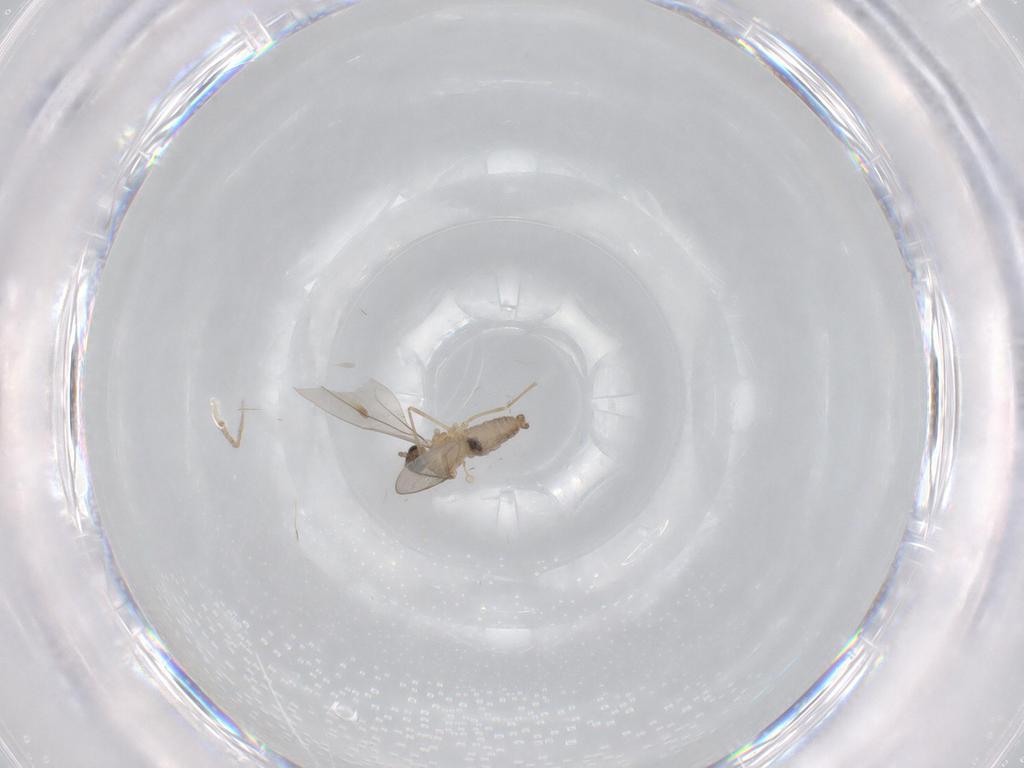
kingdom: Animalia
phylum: Arthropoda
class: Insecta
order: Diptera
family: Cecidomyiidae
